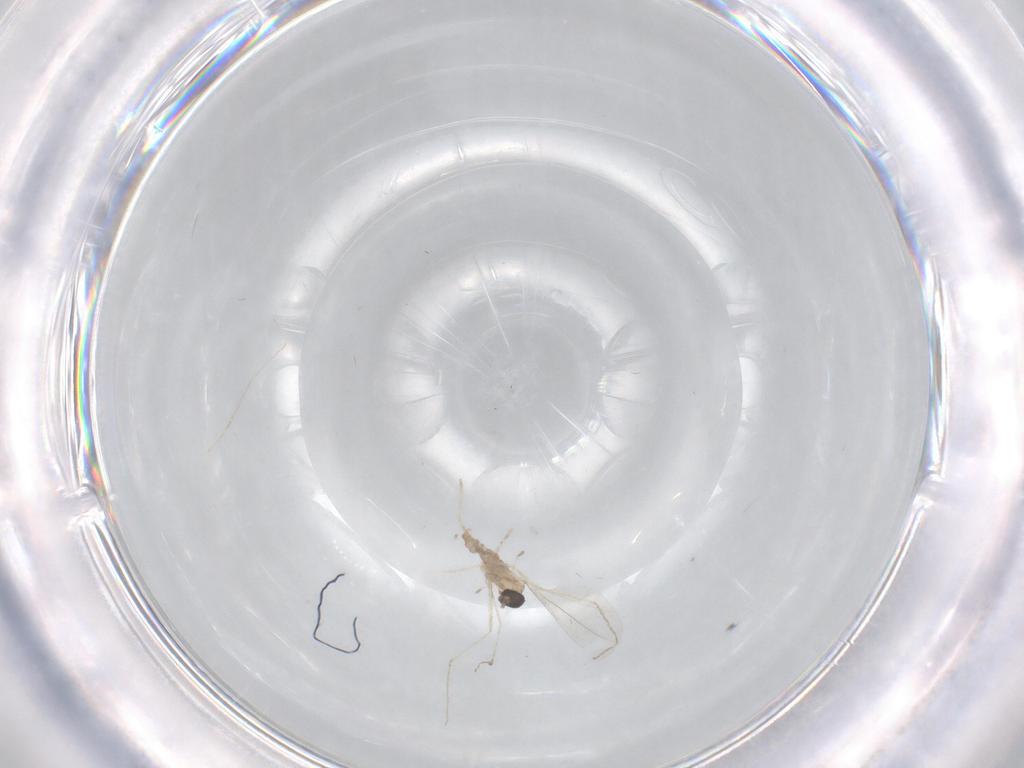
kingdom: Animalia
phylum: Arthropoda
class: Insecta
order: Diptera
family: Cecidomyiidae
